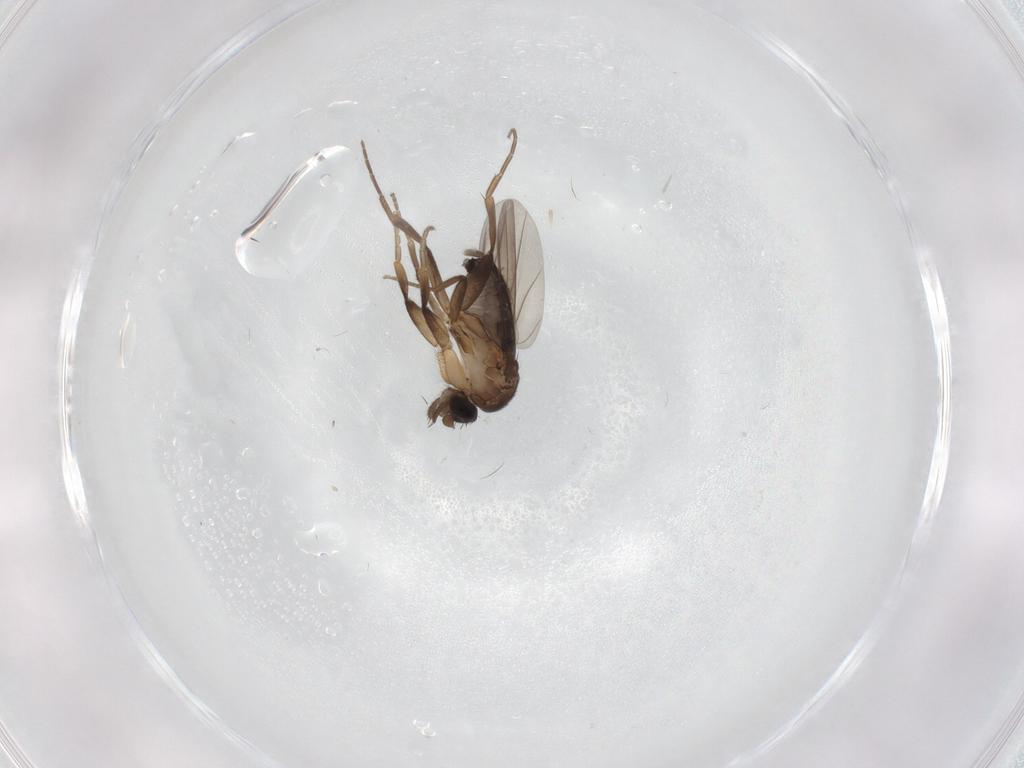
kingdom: Animalia
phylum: Arthropoda
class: Insecta
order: Diptera
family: Phoridae
